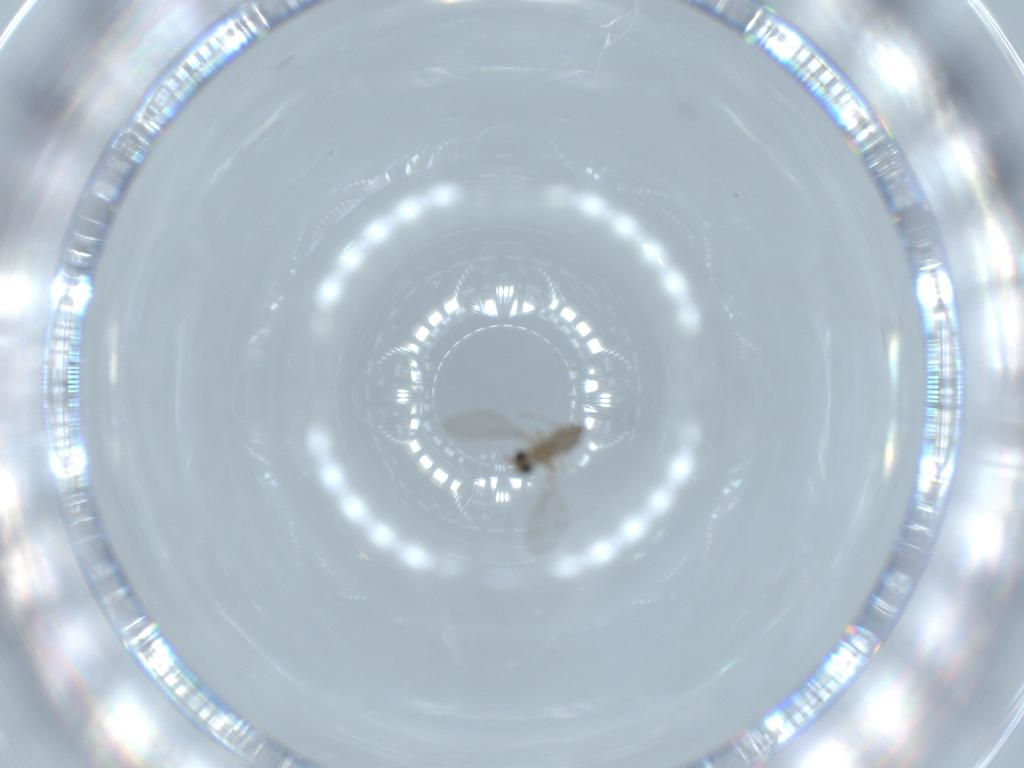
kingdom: Animalia
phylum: Arthropoda
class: Insecta
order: Diptera
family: Cecidomyiidae
